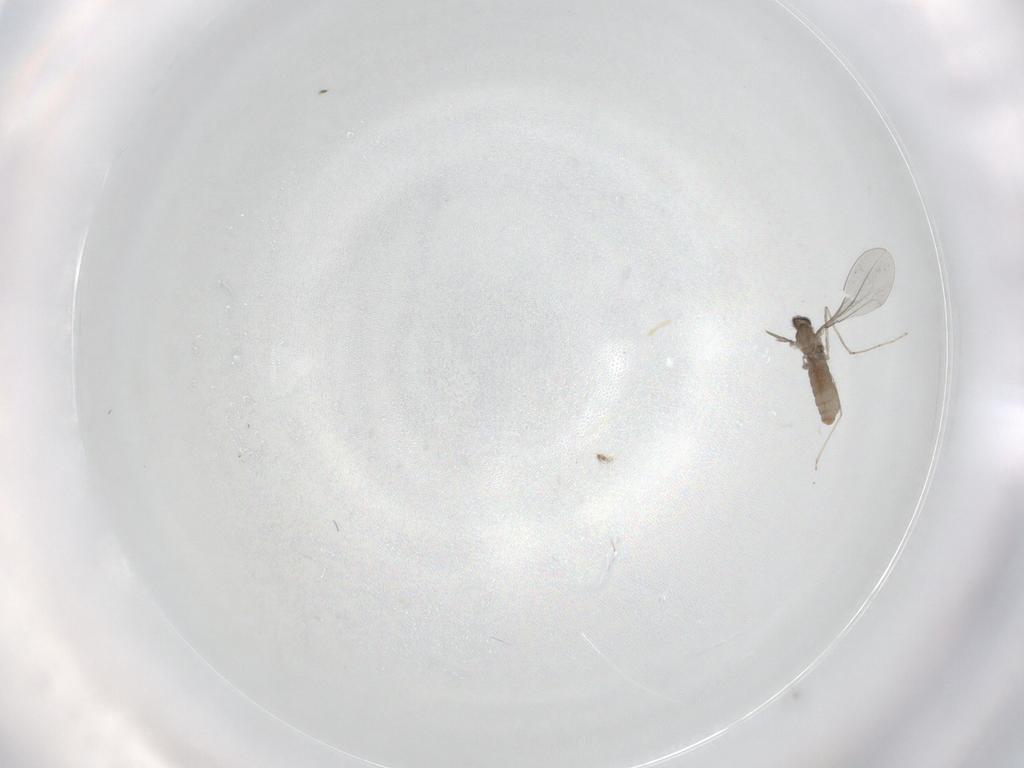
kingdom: Animalia
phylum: Arthropoda
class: Insecta
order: Diptera
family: Cecidomyiidae
